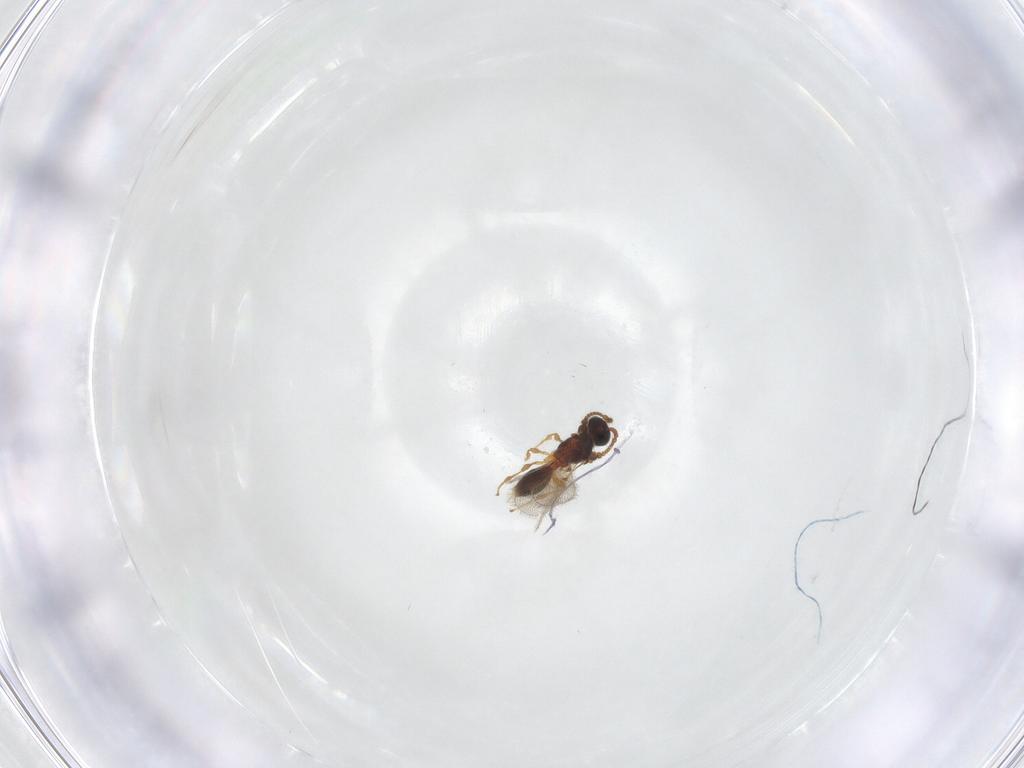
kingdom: Animalia
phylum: Arthropoda
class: Insecta
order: Hymenoptera
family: Diapriidae
